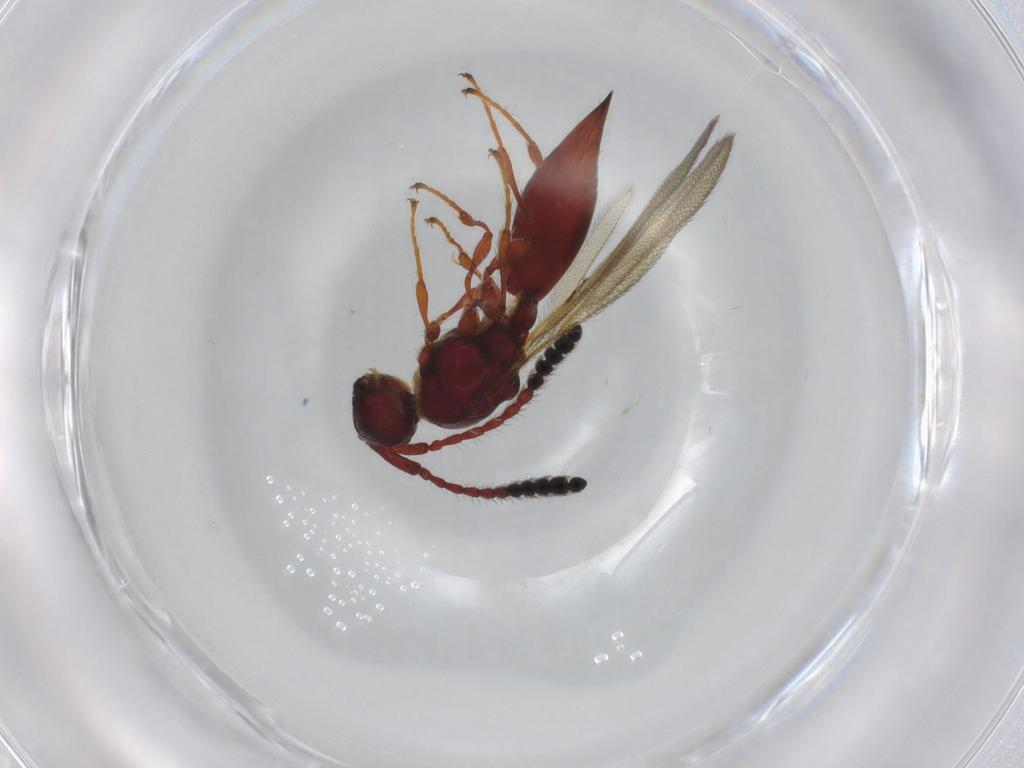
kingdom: Animalia
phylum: Arthropoda
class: Insecta
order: Hymenoptera
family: Diapriidae
